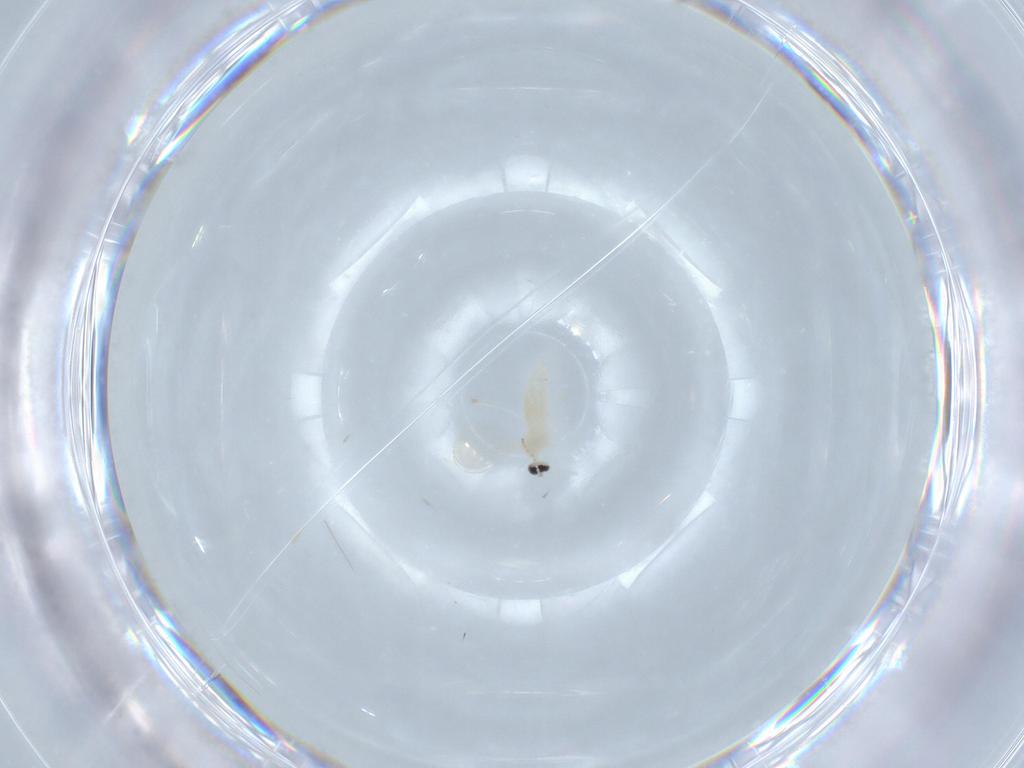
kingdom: Animalia
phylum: Arthropoda
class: Insecta
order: Diptera
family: Cecidomyiidae
